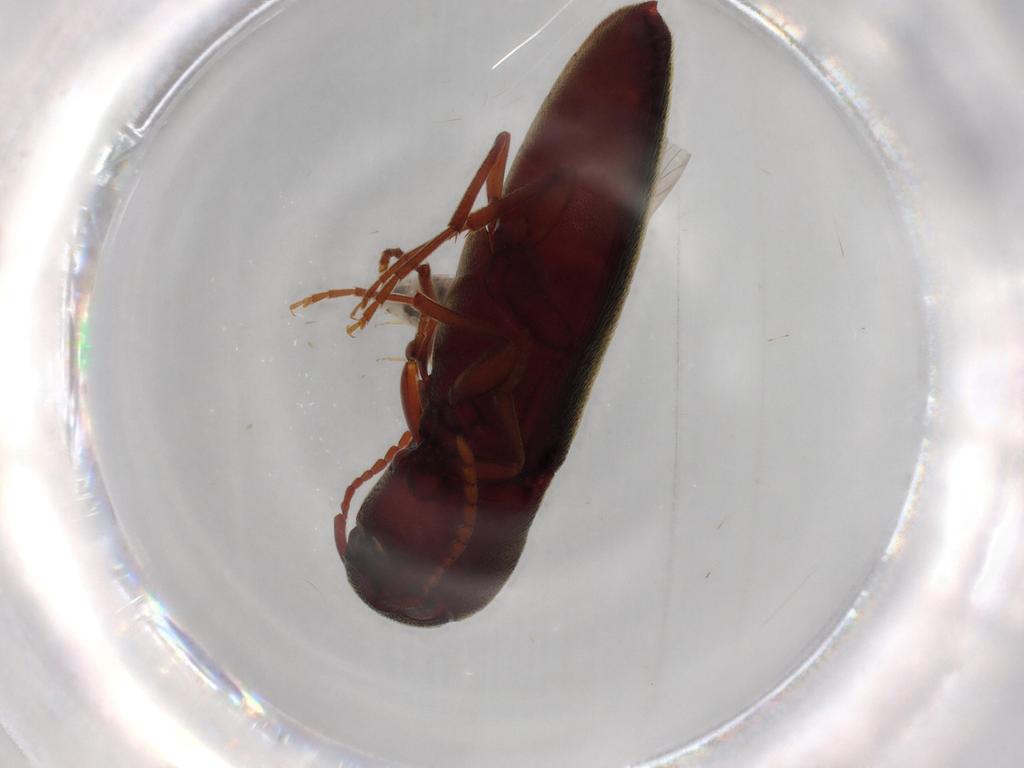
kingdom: Animalia
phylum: Arthropoda
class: Insecta
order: Coleoptera
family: Eucnemidae
